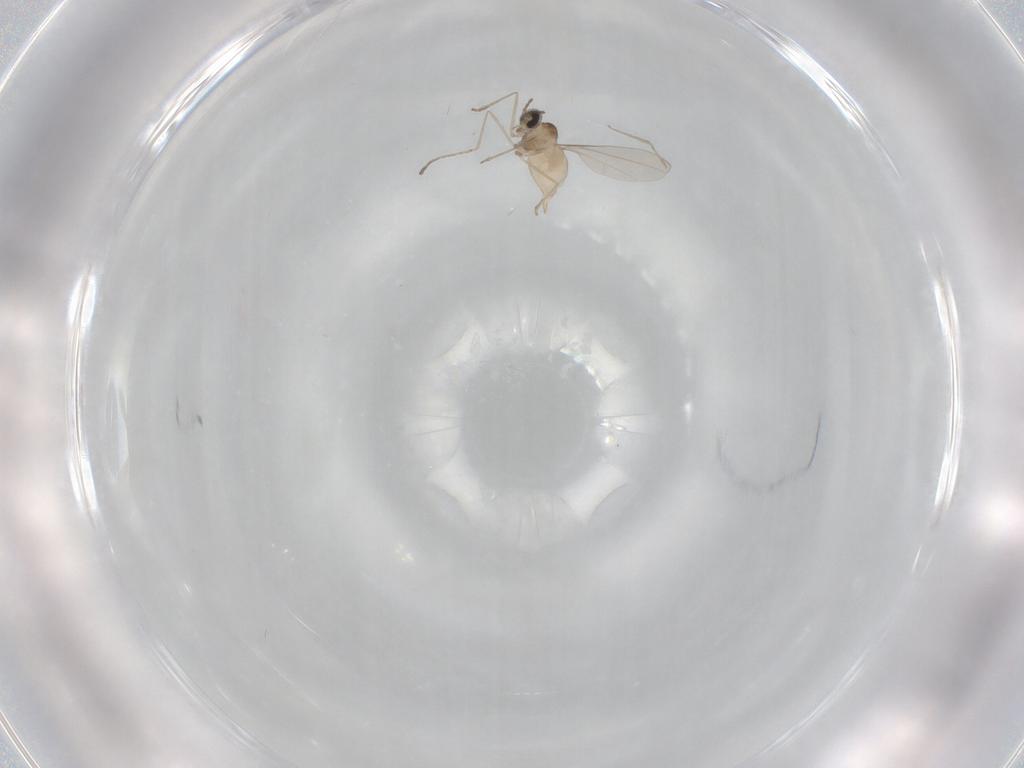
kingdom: Animalia
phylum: Arthropoda
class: Insecta
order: Diptera
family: Cecidomyiidae
